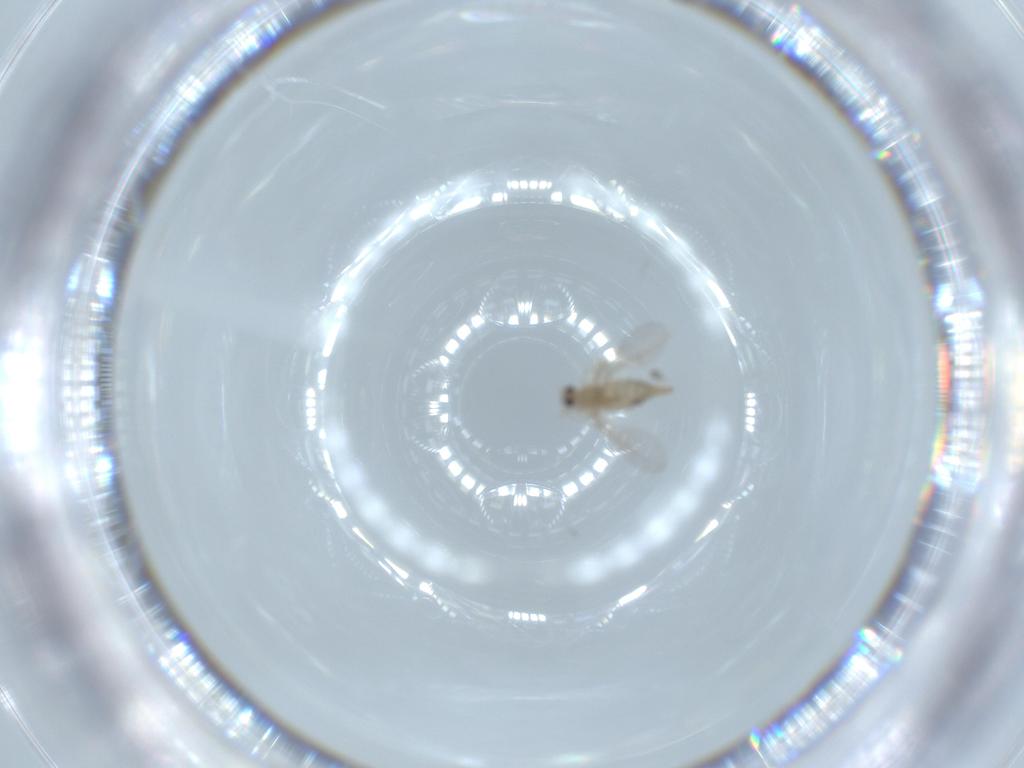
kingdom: Animalia
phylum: Arthropoda
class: Insecta
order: Diptera
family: Cecidomyiidae
